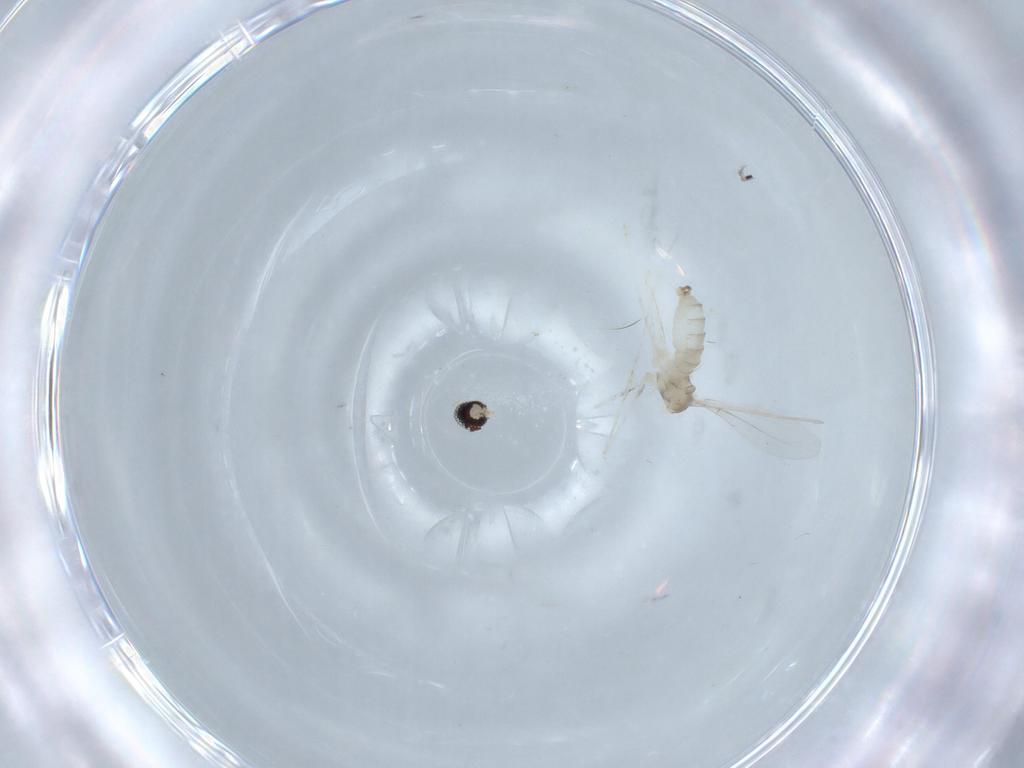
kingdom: Animalia
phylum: Arthropoda
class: Insecta
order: Diptera
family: Cecidomyiidae
